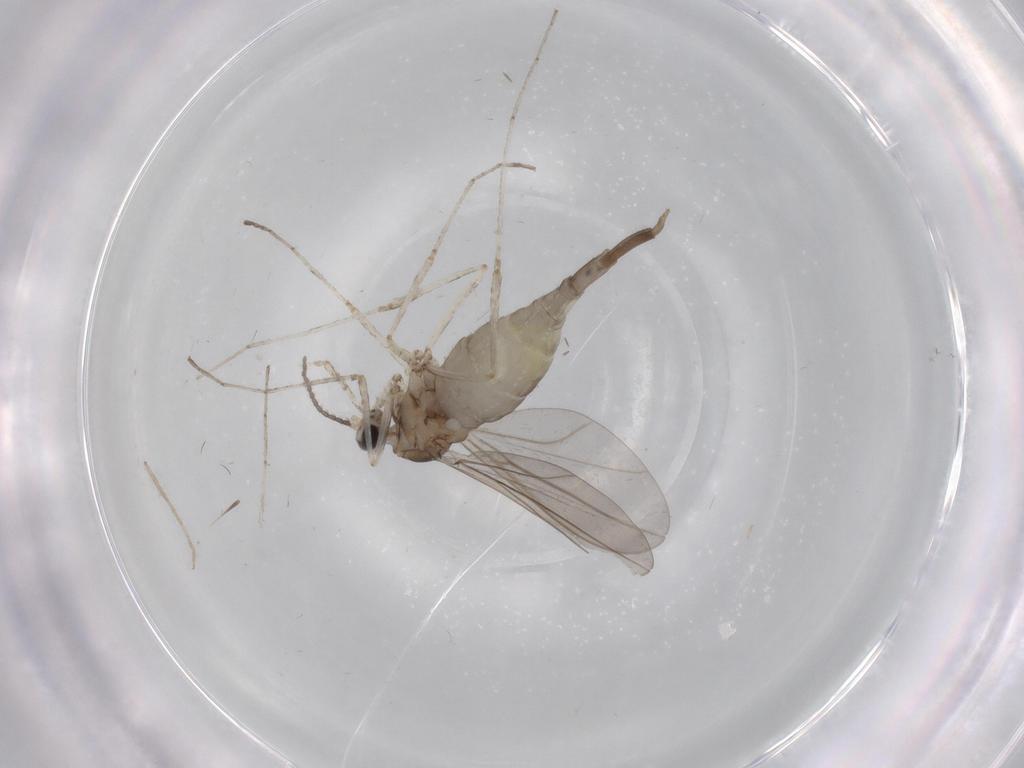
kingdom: Animalia
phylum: Arthropoda
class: Insecta
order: Diptera
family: Cecidomyiidae
